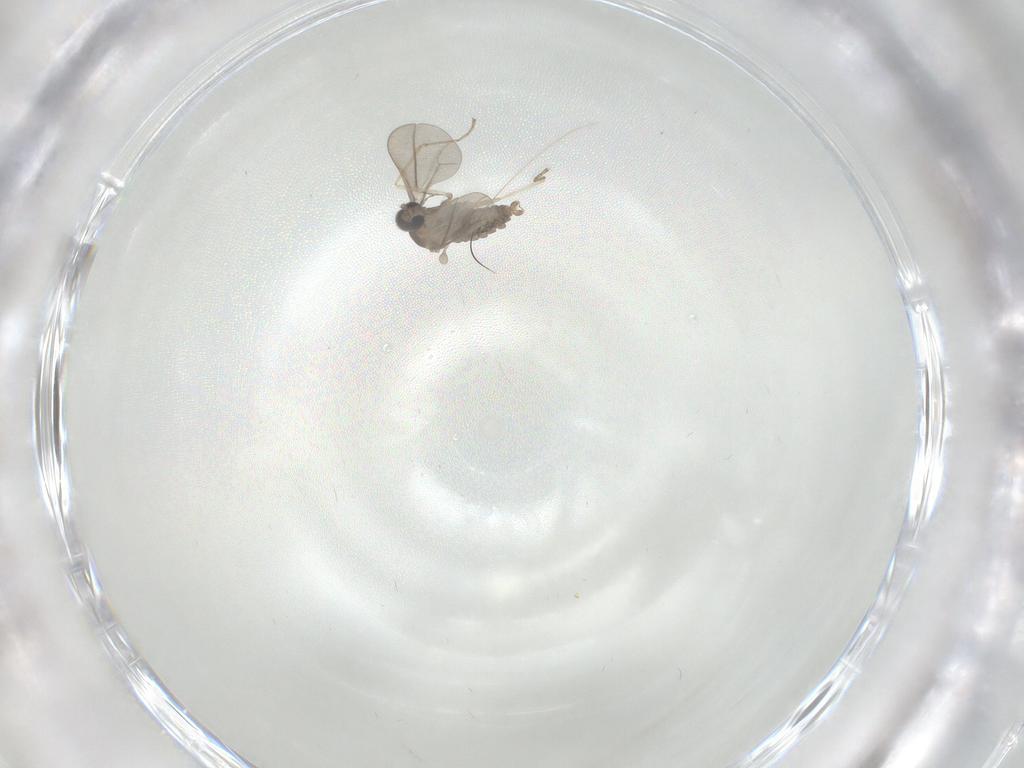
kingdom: Animalia
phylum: Arthropoda
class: Insecta
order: Diptera
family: Cecidomyiidae
